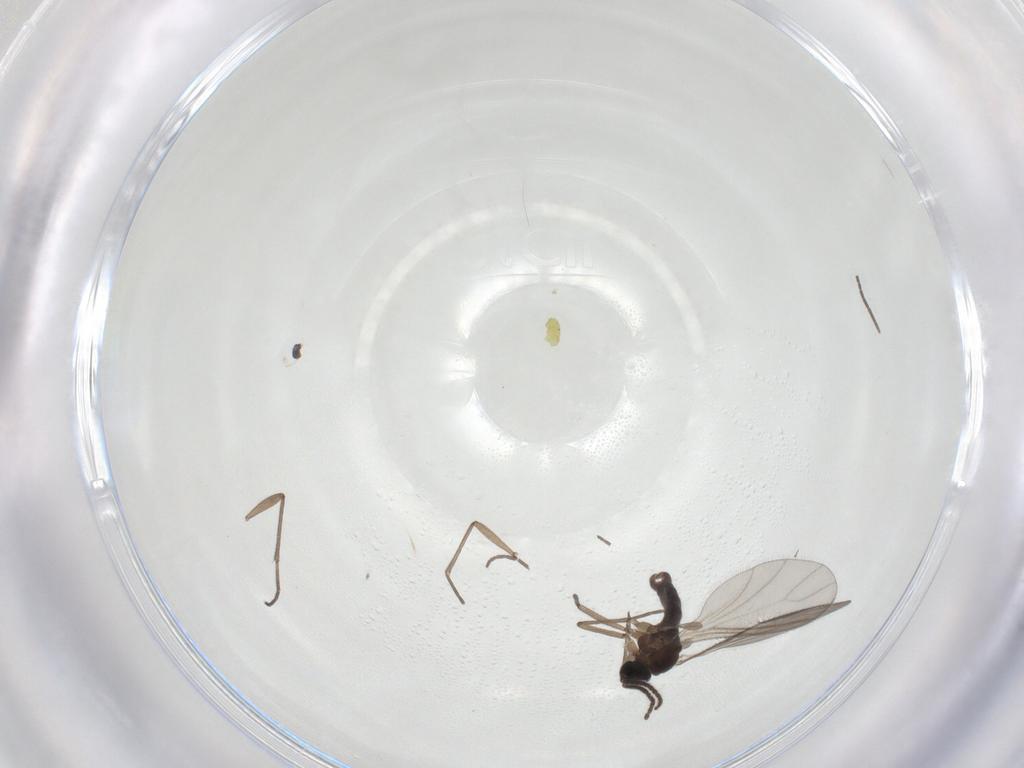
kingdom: Animalia
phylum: Arthropoda
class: Insecta
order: Diptera
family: Sciaridae
